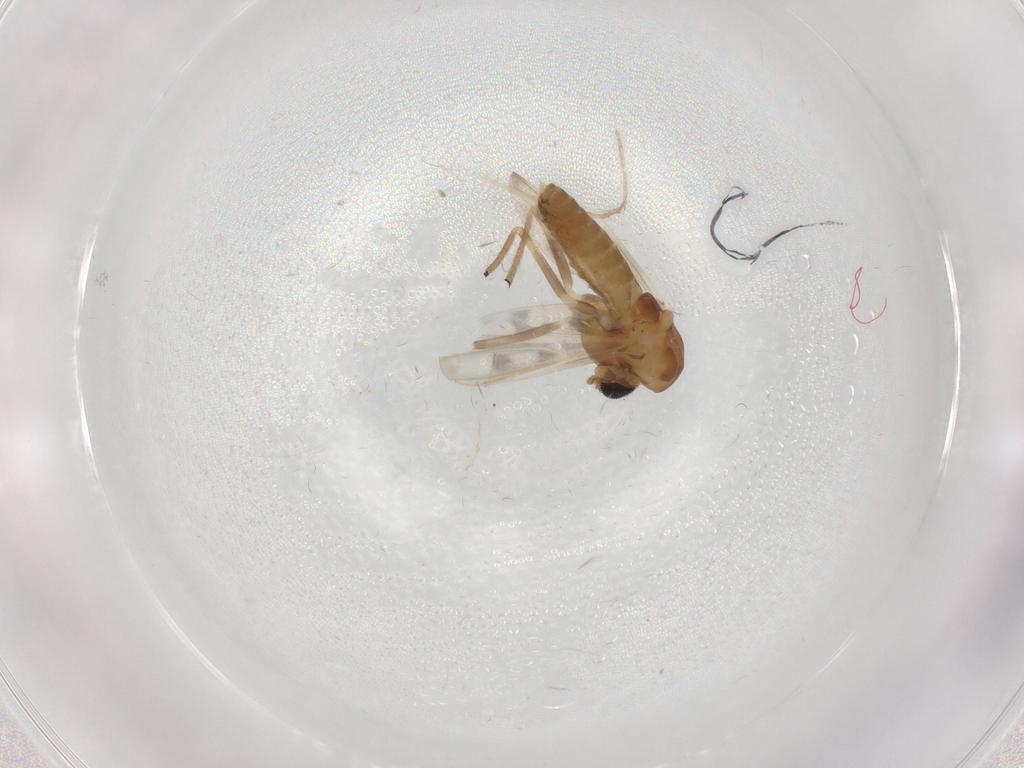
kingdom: Animalia
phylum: Arthropoda
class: Insecta
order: Diptera
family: Chironomidae
